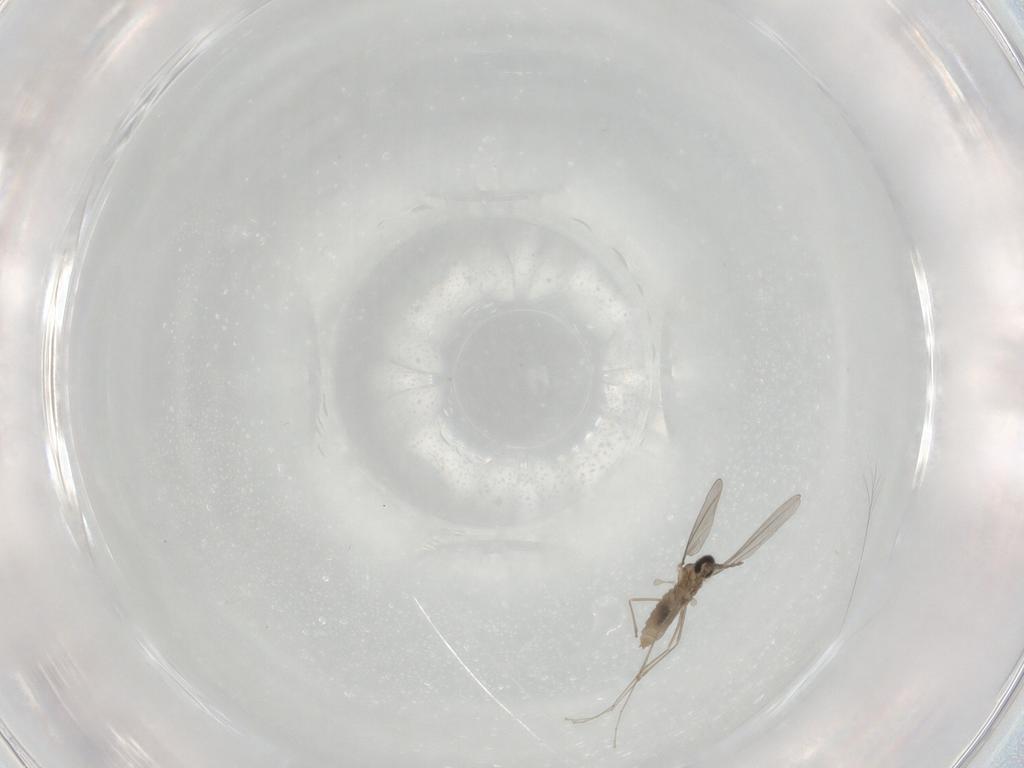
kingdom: Animalia
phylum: Arthropoda
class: Insecta
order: Diptera
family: Cecidomyiidae
